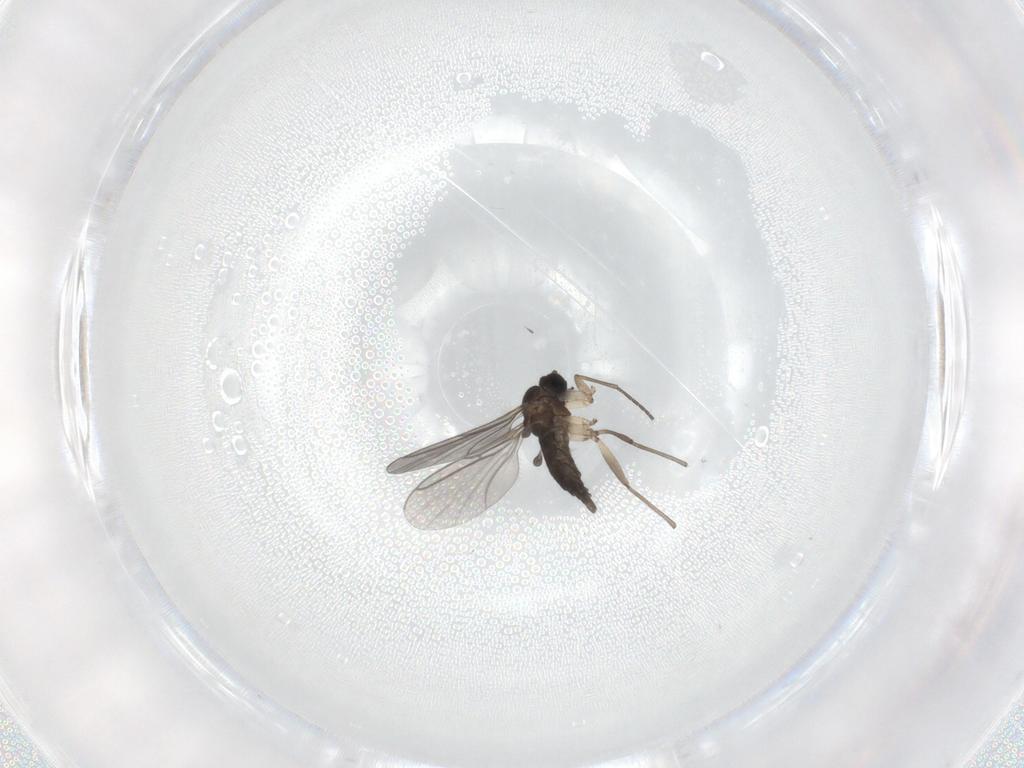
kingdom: Animalia
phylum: Arthropoda
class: Insecta
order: Diptera
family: Sciaridae
